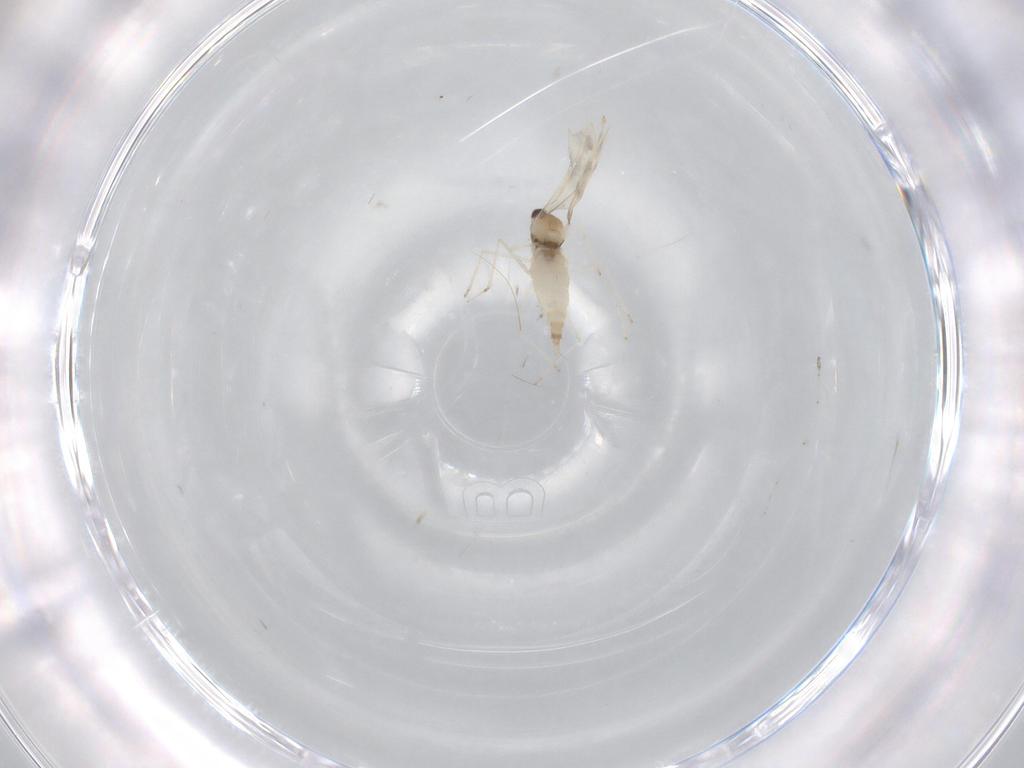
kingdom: Animalia
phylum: Arthropoda
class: Insecta
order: Diptera
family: Cecidomyiidae
